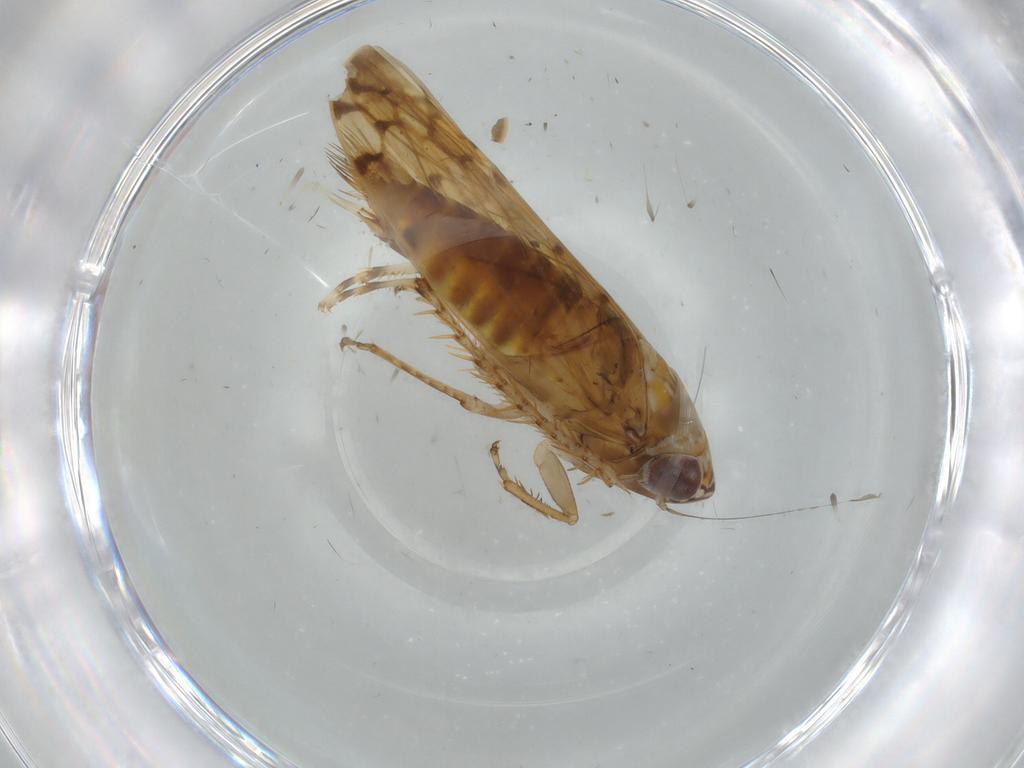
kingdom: Animalia
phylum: Arthropoda
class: Insecta
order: Hemiptera
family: Cicadellidae
